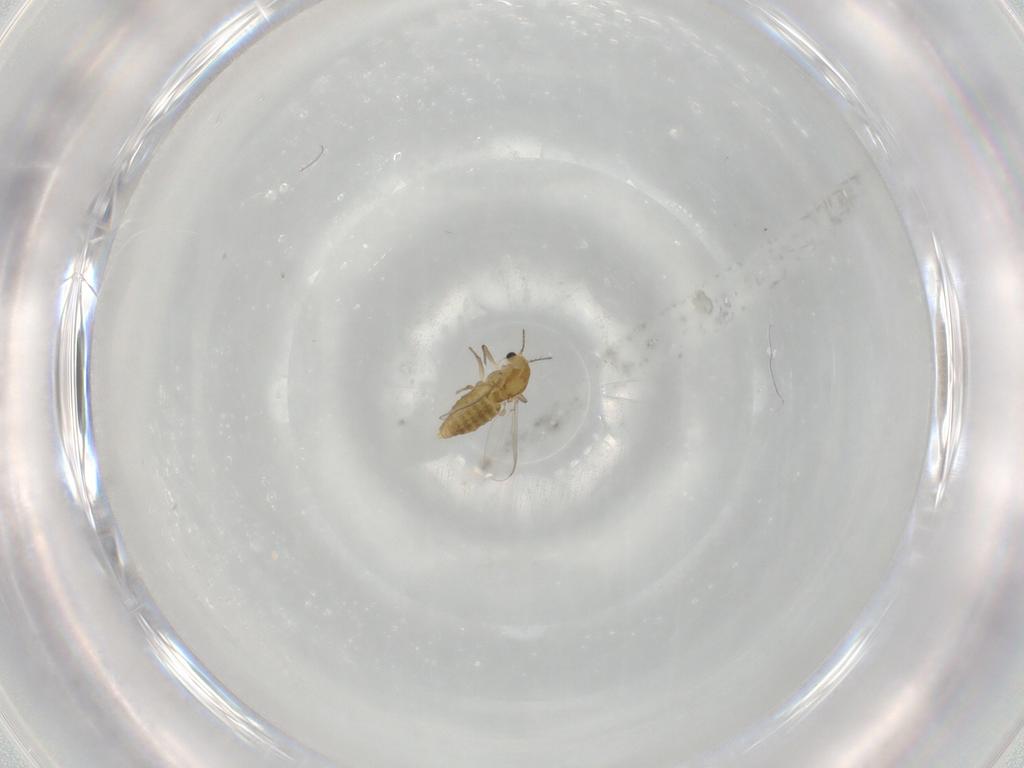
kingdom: Animalia
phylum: Arthropoda
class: Insecta
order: Diptera
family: Chironomidae
